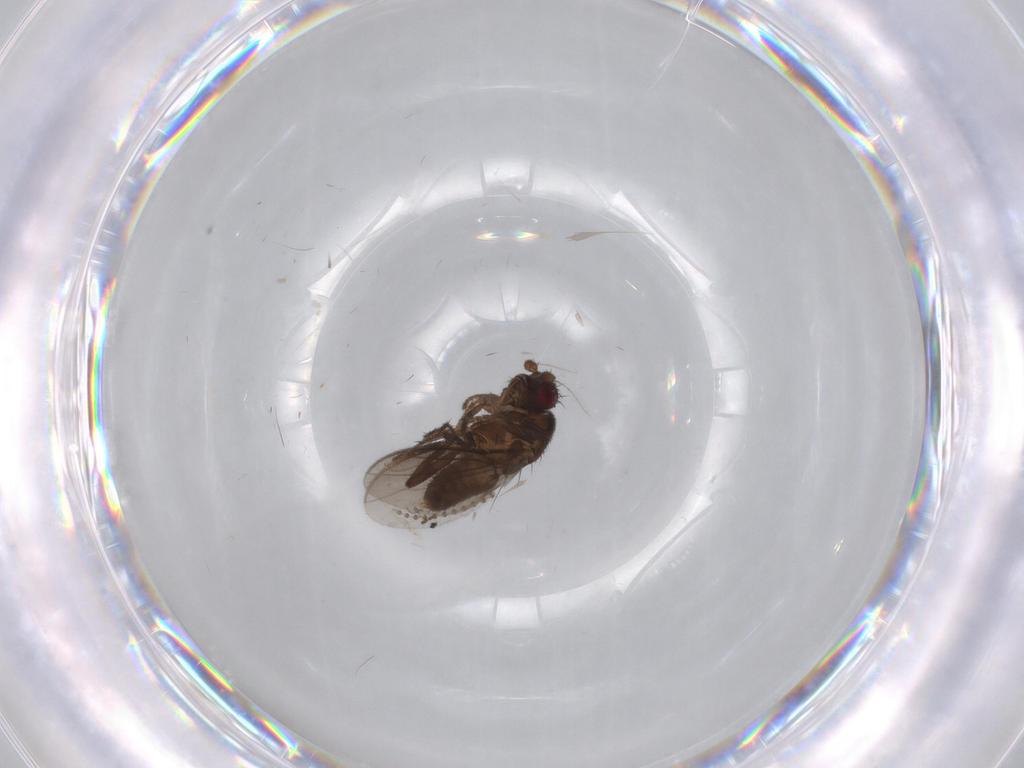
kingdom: Animalia
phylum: Arthropoda
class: Insecta
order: Diptera
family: Sphaeroceridae
